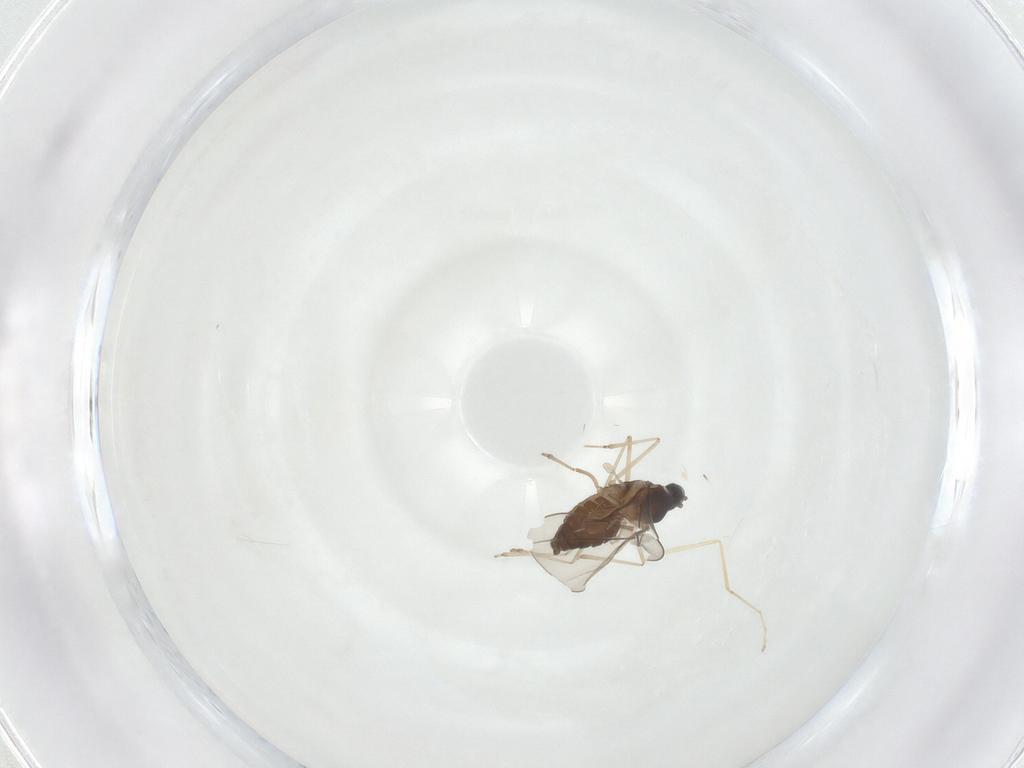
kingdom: Animalia
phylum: Arthropoda
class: Insecta
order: Diptera
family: Cecidomyiidae
